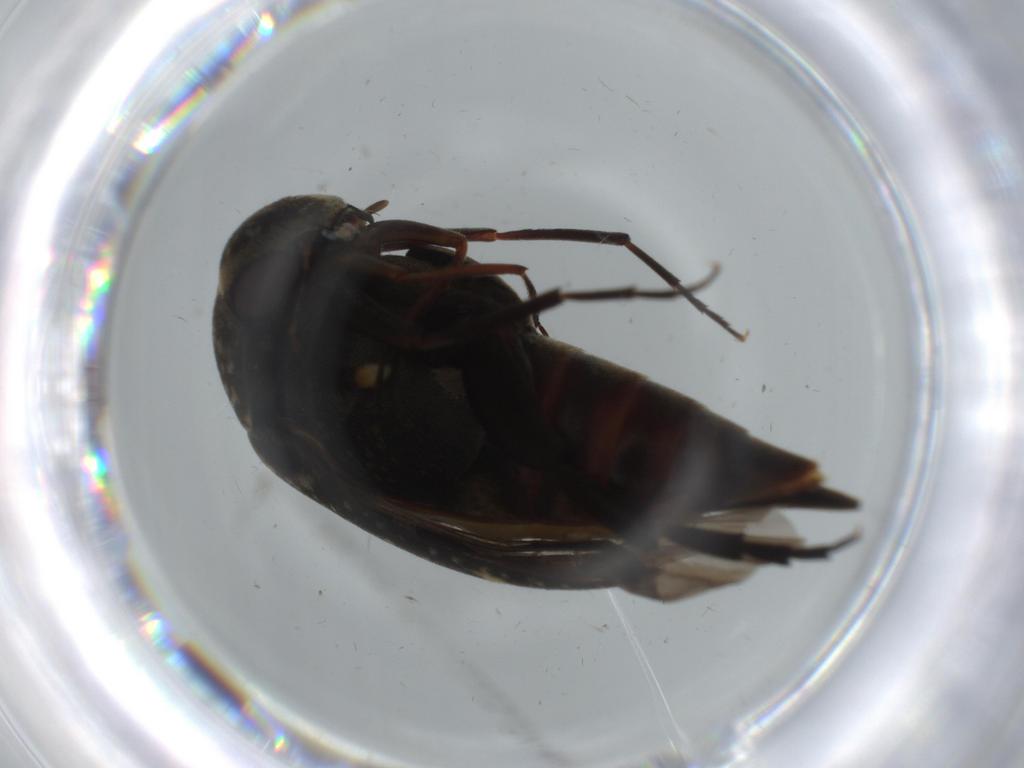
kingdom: Animalia
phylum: Arthropoda
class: Insecta
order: Coleoptera
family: Mordellidae
